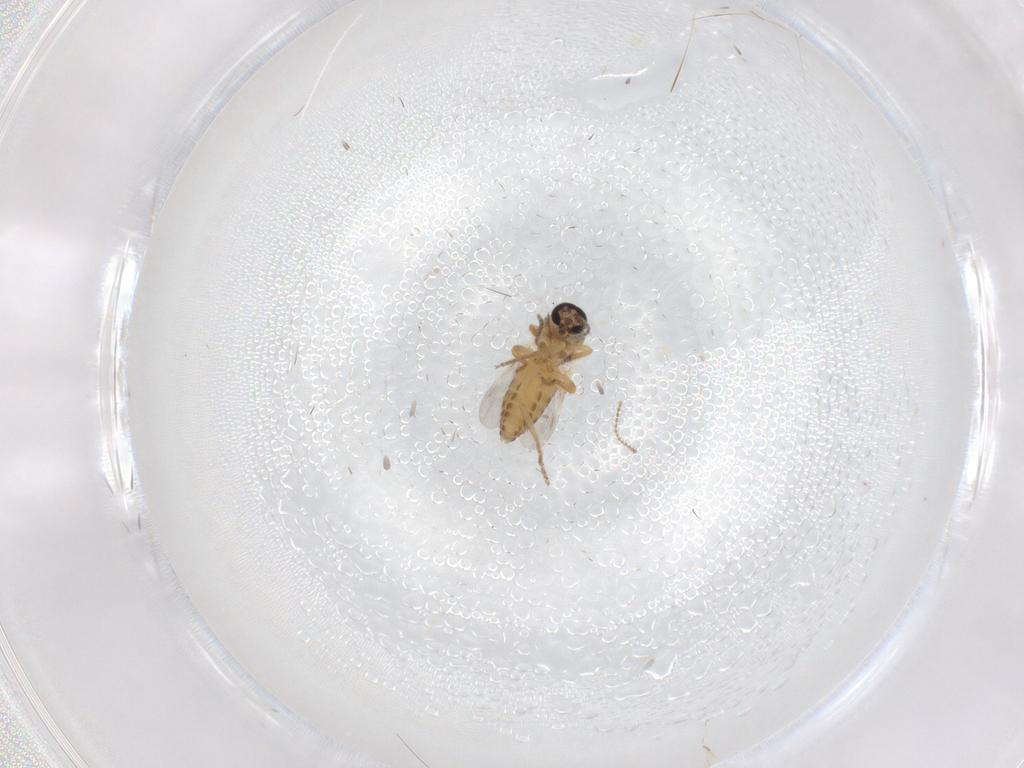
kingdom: Animalia
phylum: Arthropoda
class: Insecta
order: Diptera
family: Ceratopogonidae
